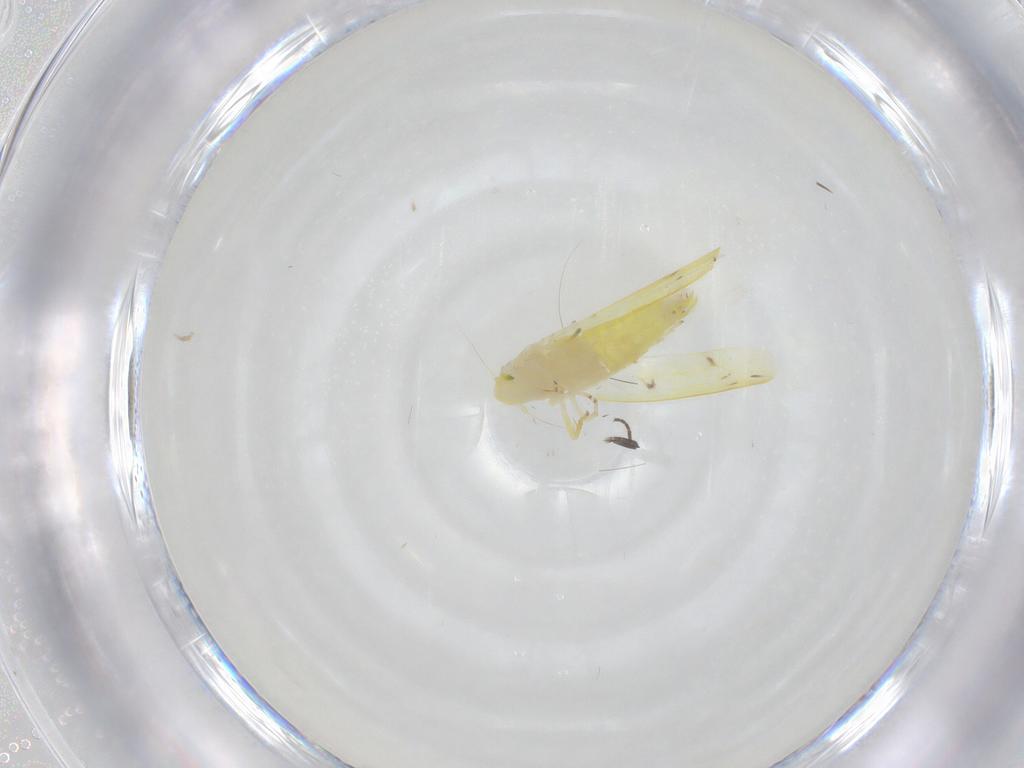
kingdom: Animalia
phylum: Arthropoda
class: Insecta
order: Hemiptera
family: Cicadellidae
